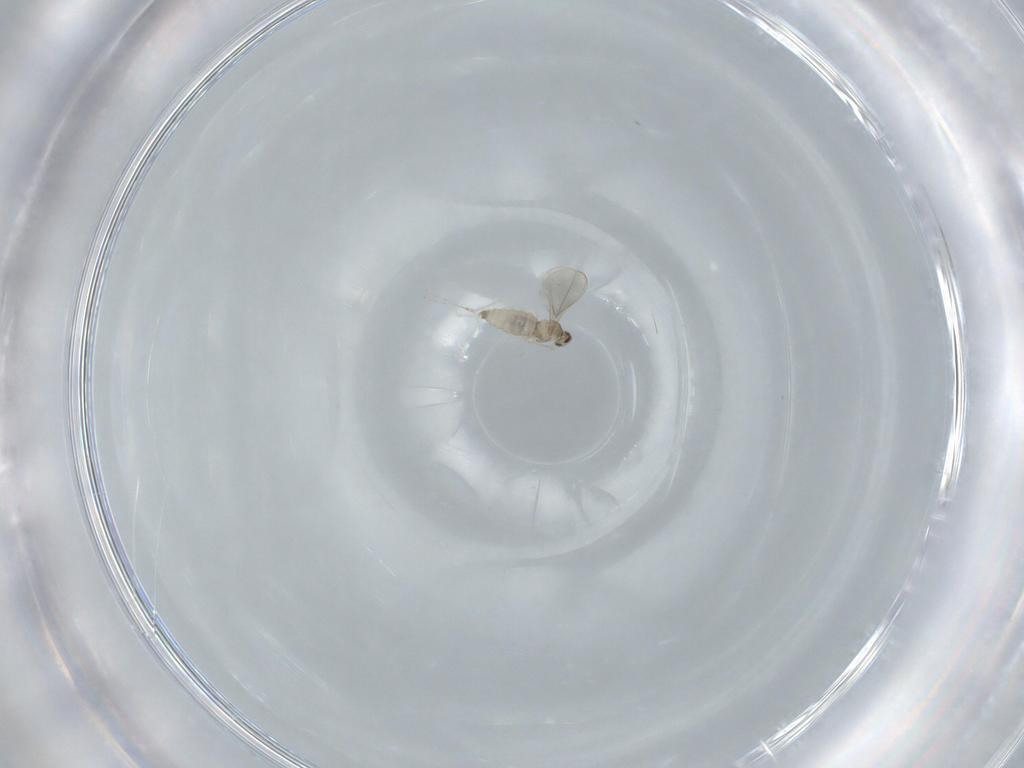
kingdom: Animalia
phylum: Arthropoda
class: Insecta
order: Diptera
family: Cecidomyiidae
